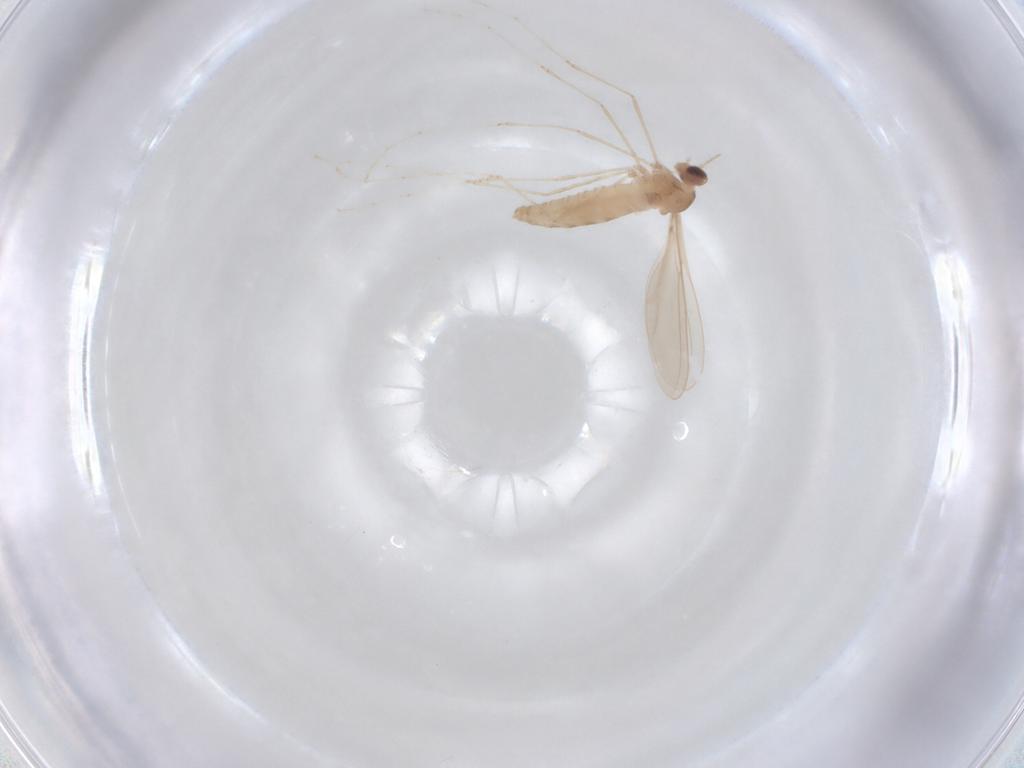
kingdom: Animalia
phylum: Arthropoda
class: Insecta
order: Diptera
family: Cecidomyiidae
